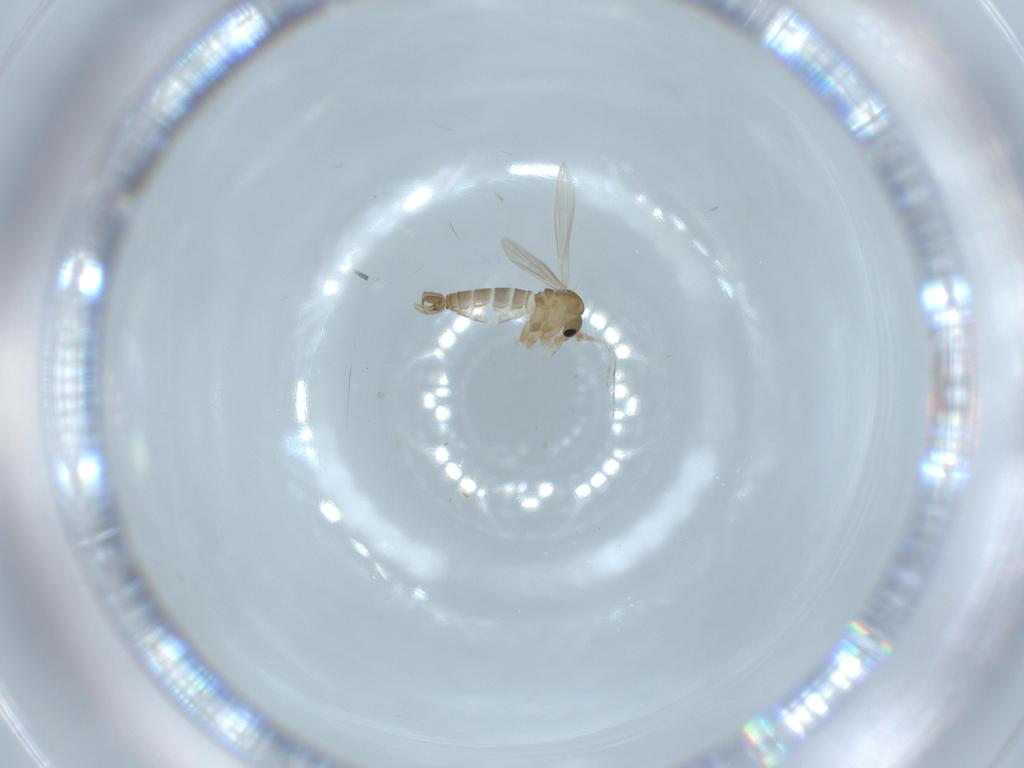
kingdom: Animalia
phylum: Arthropoda
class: Insecta
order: Diptera
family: Psychodidae
